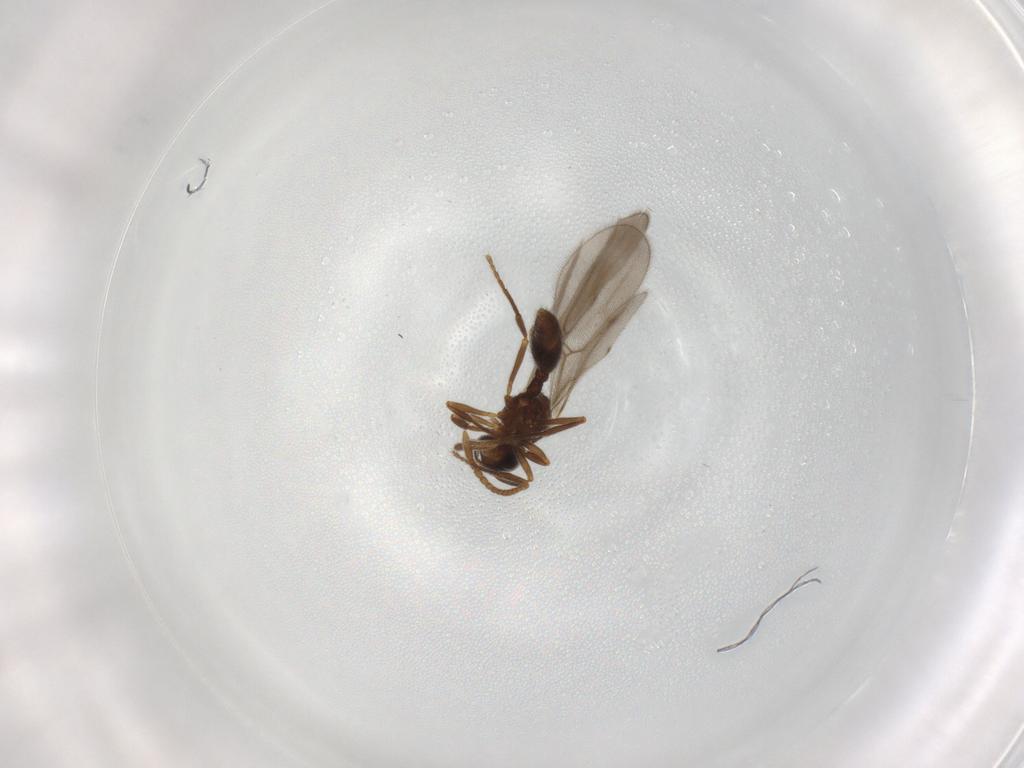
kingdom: Animalia
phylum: Arthropoda
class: Insecta
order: Hymenoptera
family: Bethylidae
